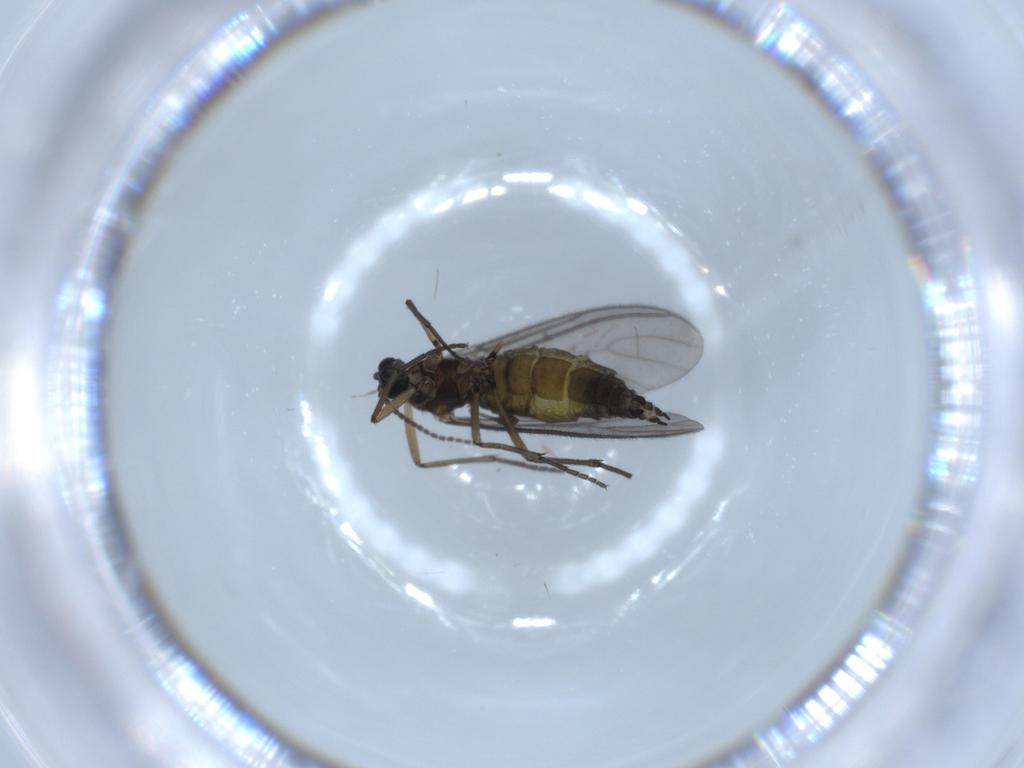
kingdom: Animalia
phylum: Arthropoda
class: Insecta
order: Diptera
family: Sciaridae
